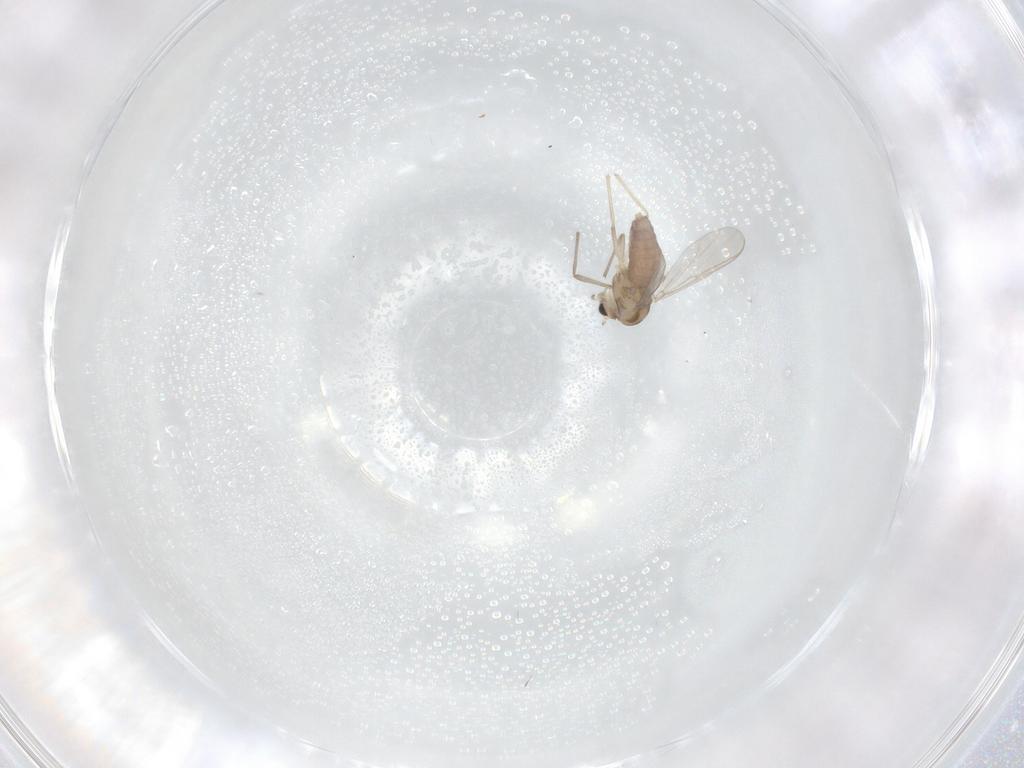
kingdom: Animalia
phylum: Arthropoda
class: Insecta
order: Diptera
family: Chironomidae
